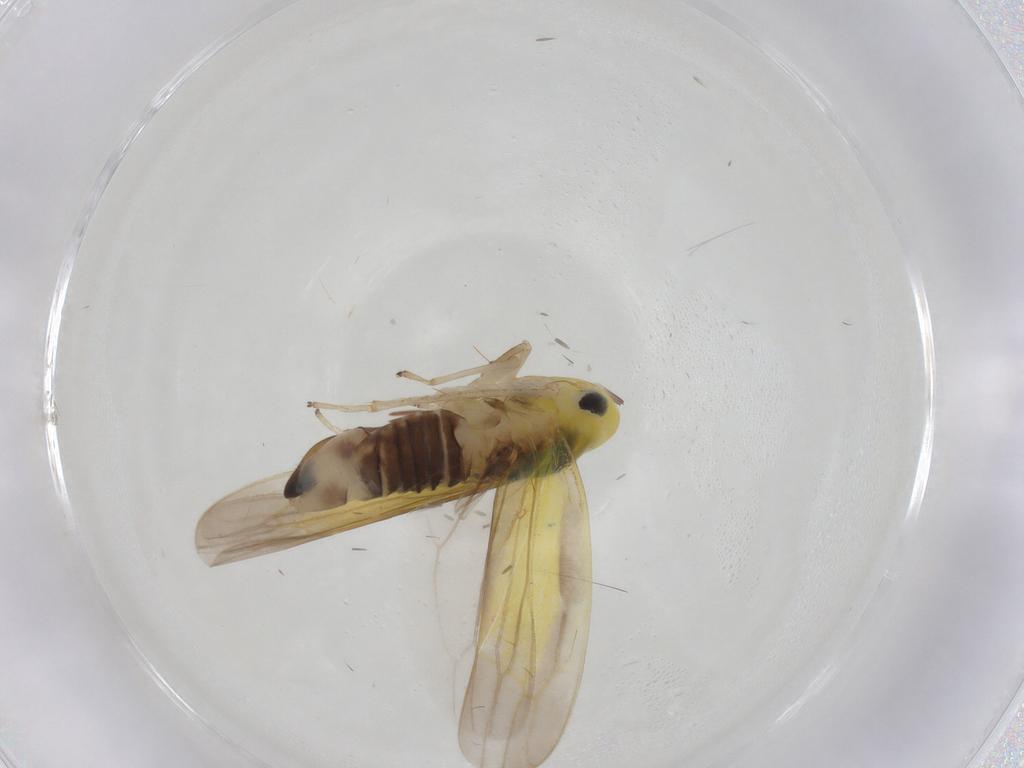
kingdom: Animalia
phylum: Arthropoda
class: Insecta
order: Hemiptera
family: Cicadellidae
